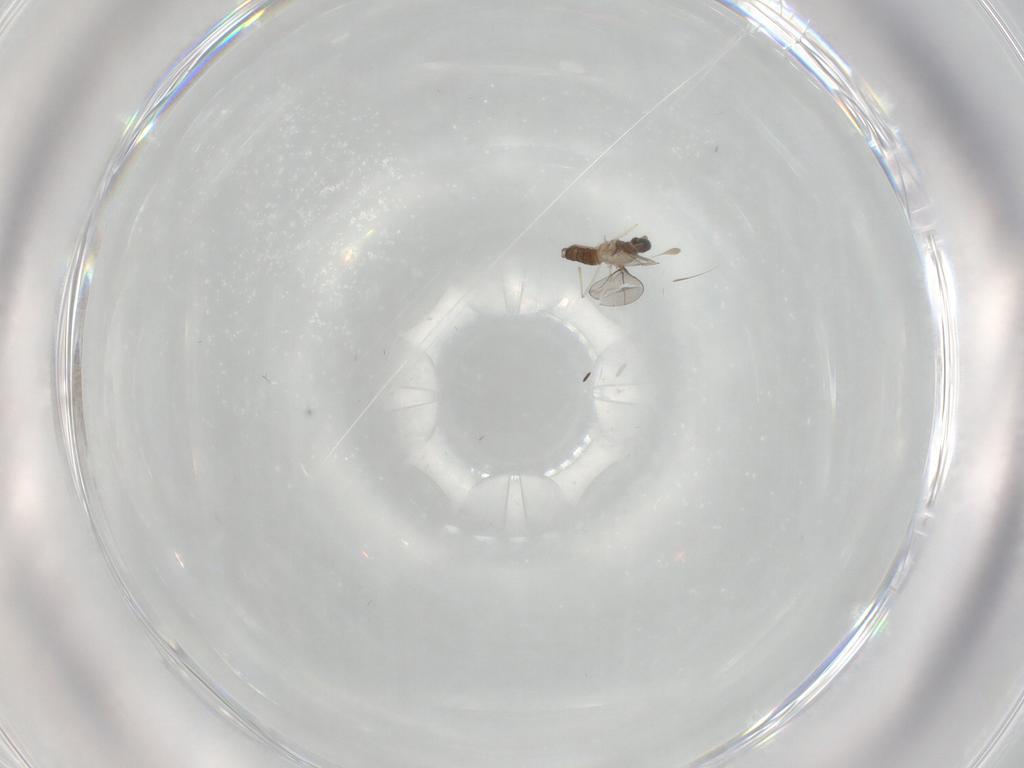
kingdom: Animalia
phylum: Arthropoda
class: Insecta
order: Diptera
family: Cecidomyiidae
